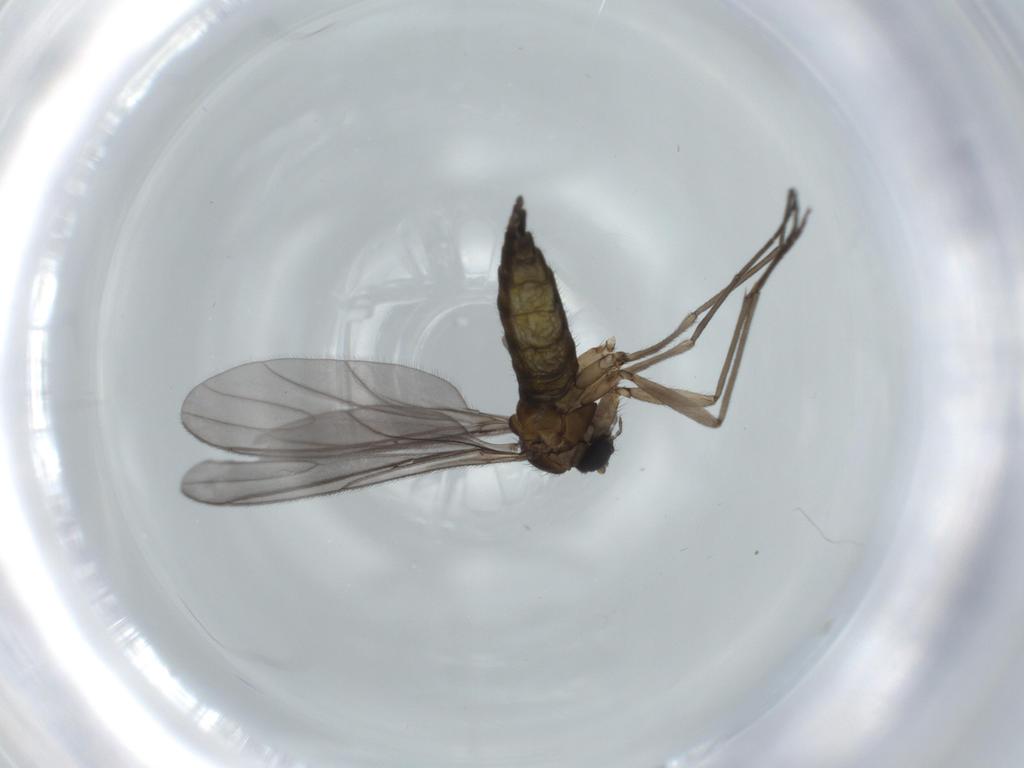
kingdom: Animalia
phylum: Arthropoda
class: Insecta
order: Diptera
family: Sciaridae
